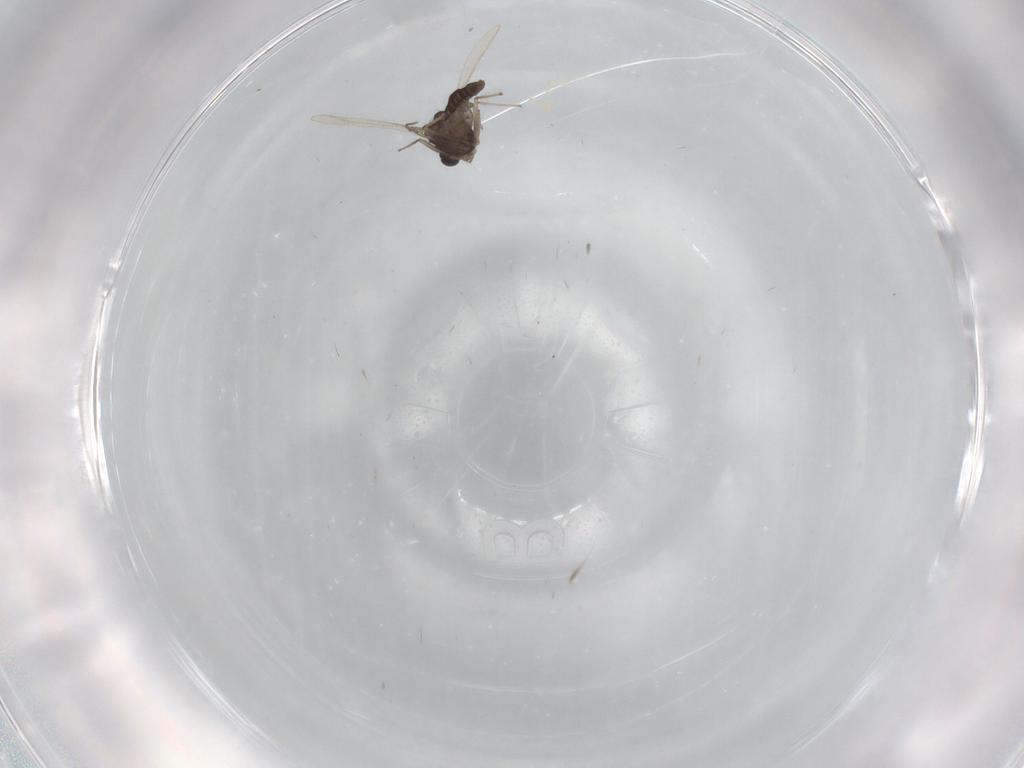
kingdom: Animalia
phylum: Arthropoda
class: Insecta
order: Diptera
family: Chironomidae
